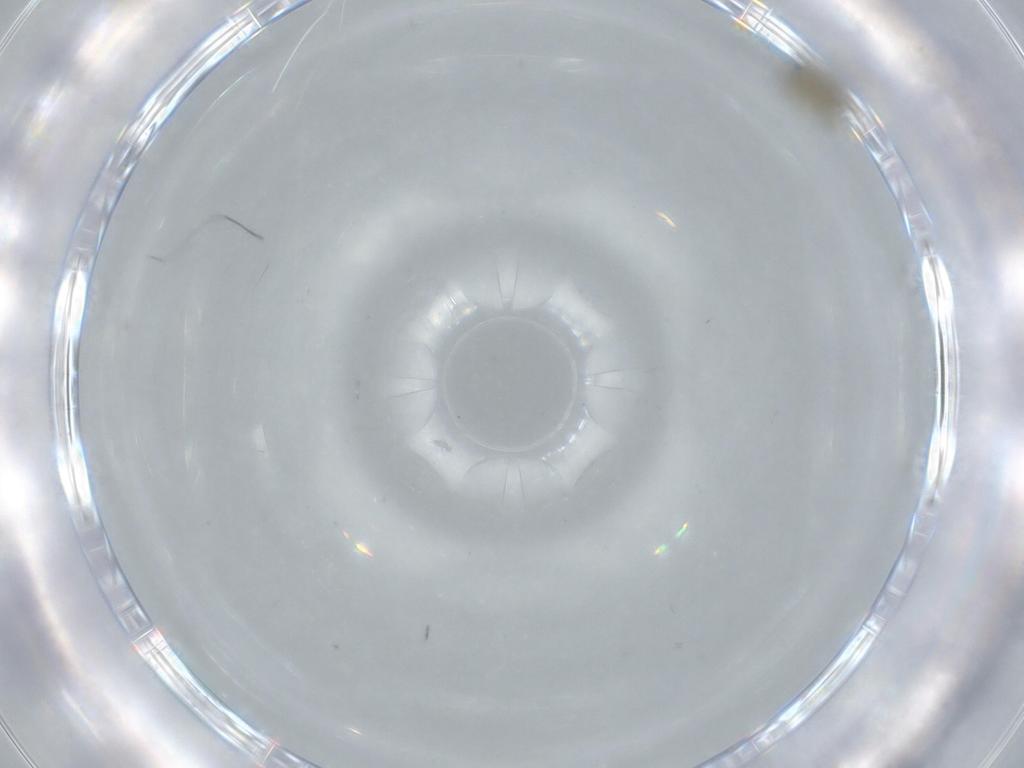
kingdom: Animalia
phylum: Arthropoda
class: Insecta
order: Hymenoptera
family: Aphelinidae
